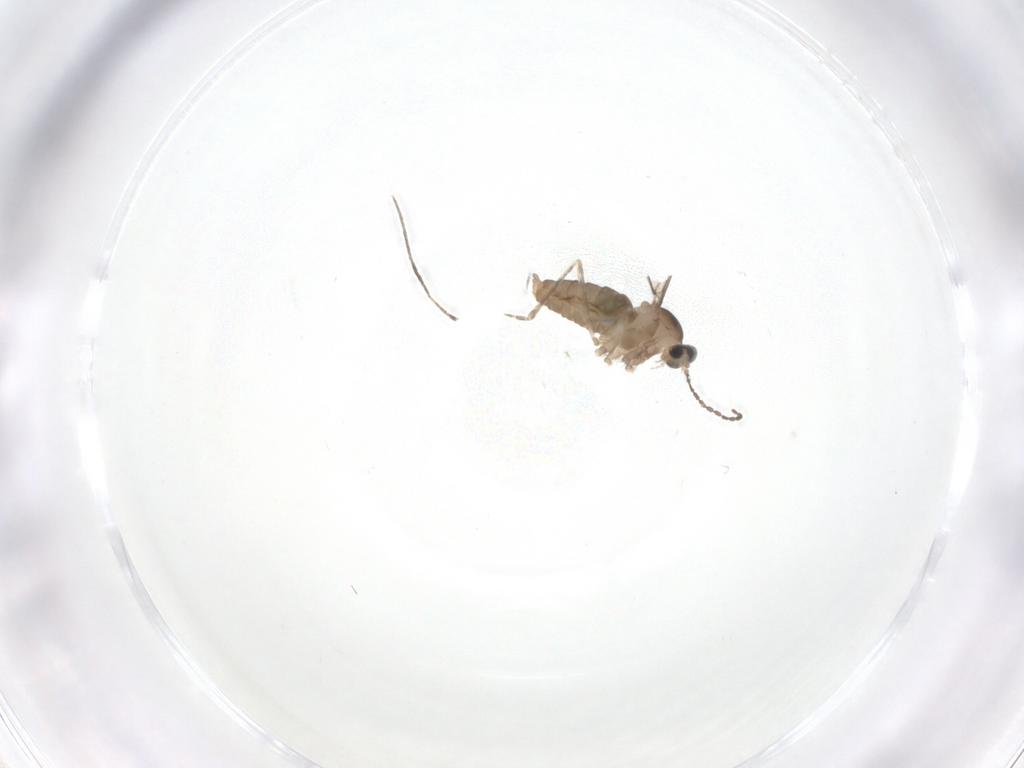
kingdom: Animalia
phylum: Arthropoda
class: Insecta
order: Diptera
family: Cecidomyiidae
